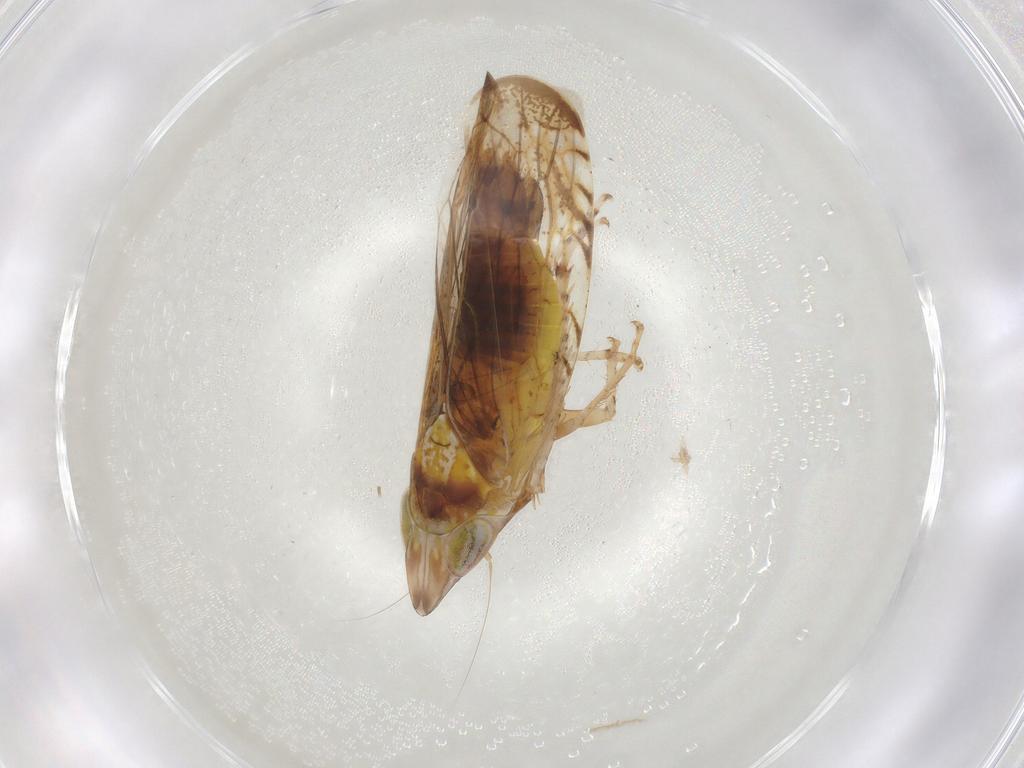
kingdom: Animalia
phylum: Arthropoda
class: Insecta
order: Hemiptera
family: Cicadellidae
